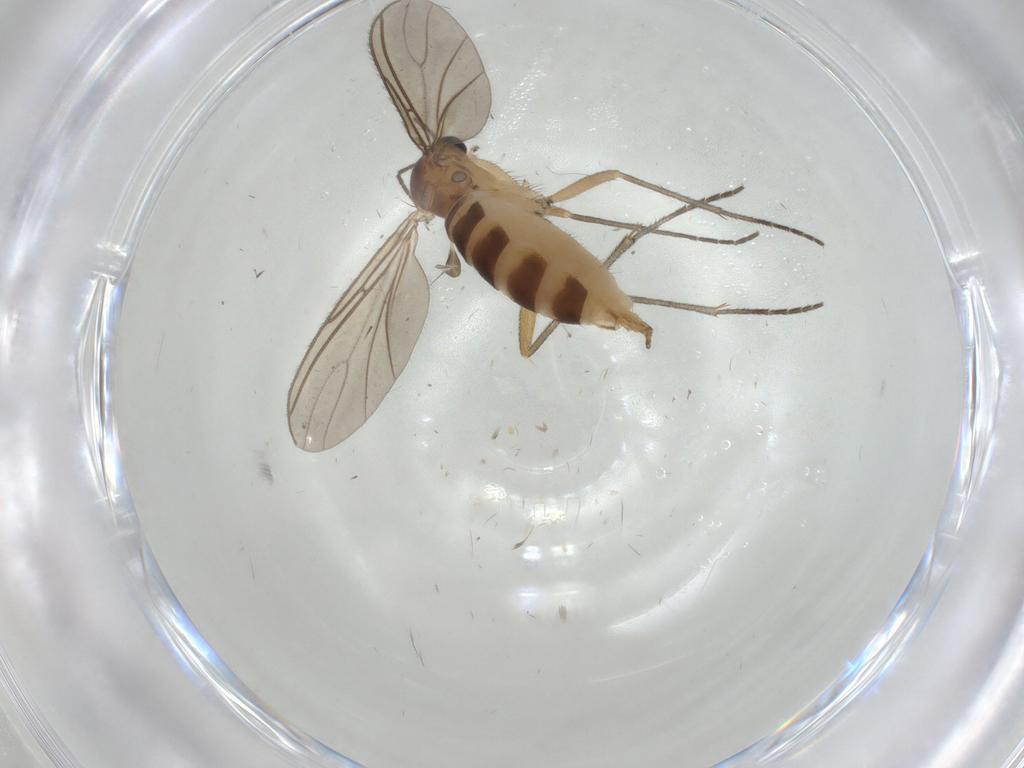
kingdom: Animalia
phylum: Arthropoda
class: Insecta
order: Diptera
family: Sciaridae
